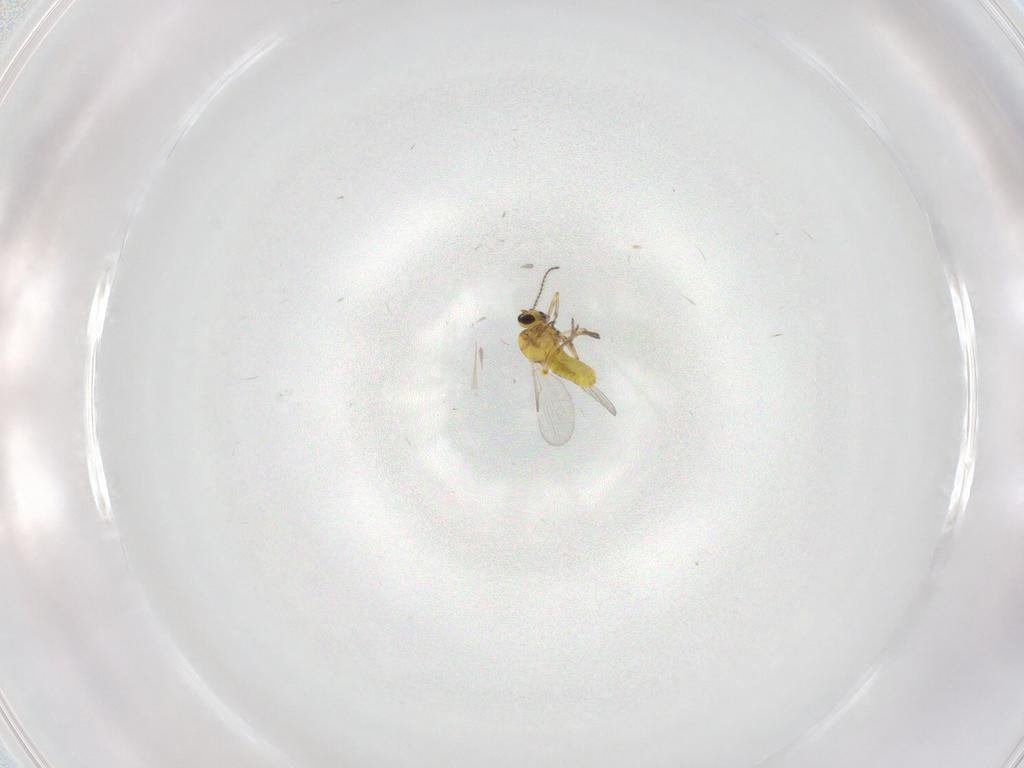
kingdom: Animalia
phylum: Arthropoda
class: Insecta
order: Diptera
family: Ceratopogonidae
